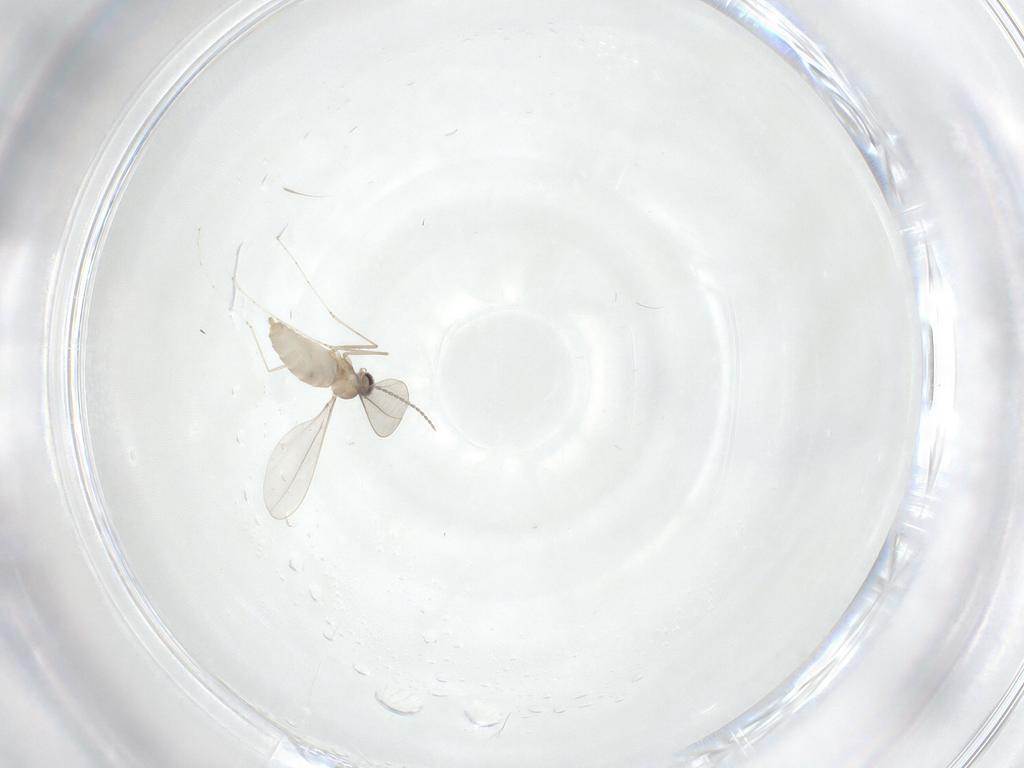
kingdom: Animalia
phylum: Arthropoda
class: Insecta
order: Diptera
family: Cecidomyiidae
